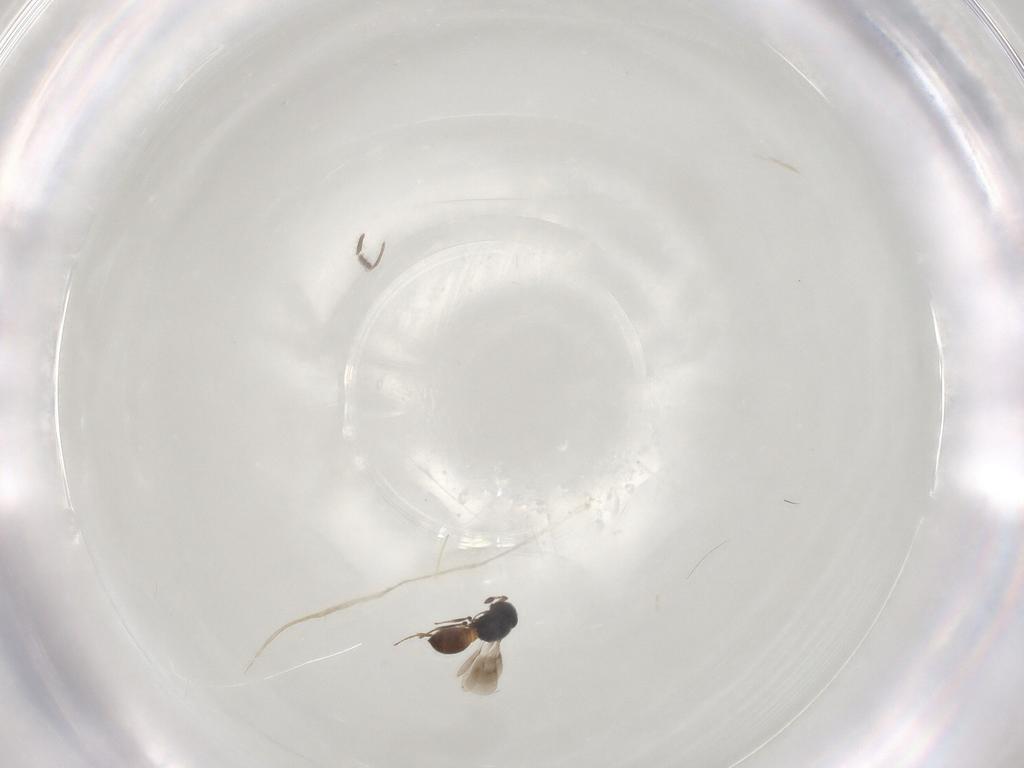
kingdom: Animalia
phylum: Arthropoda
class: Insecta
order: Hymenoptera
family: Scelionidae
